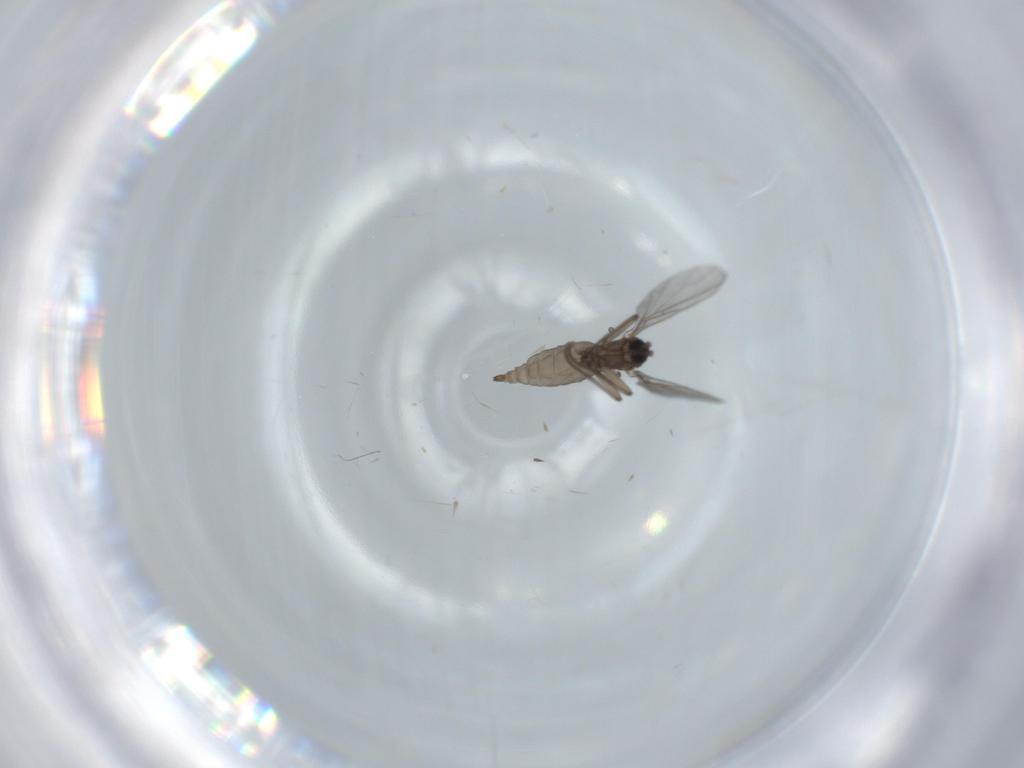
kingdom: Animalia
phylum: Arthropoda
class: Insecta
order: Diptera
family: Sciaridae
